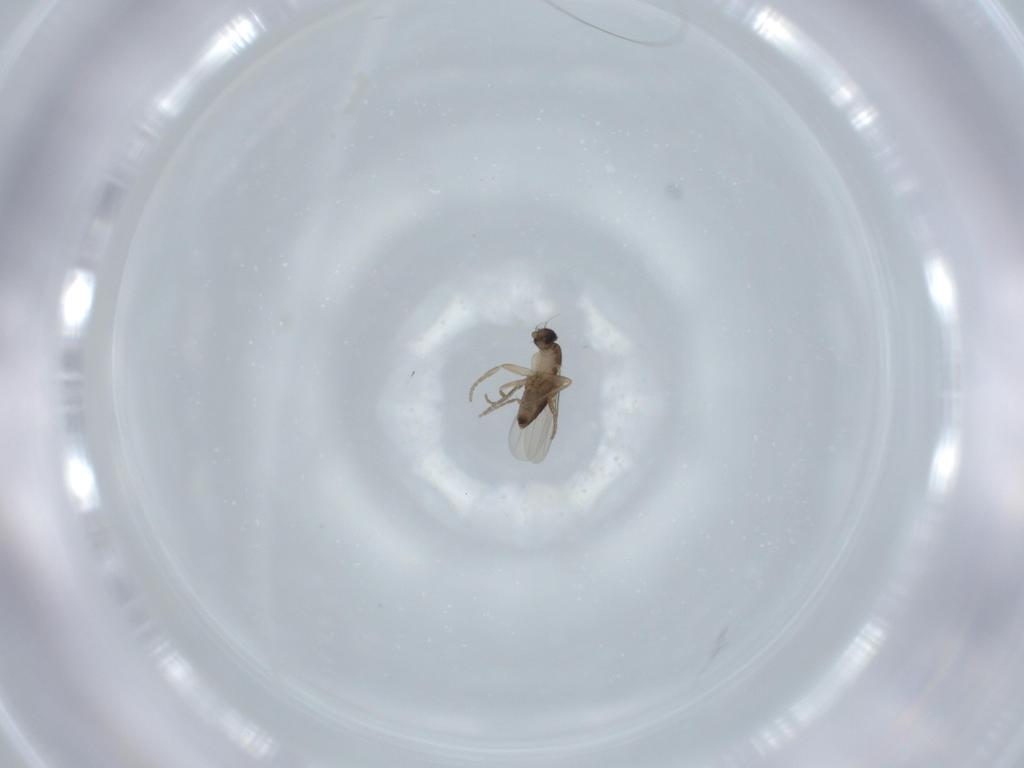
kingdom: Animalia
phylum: Arthropoda
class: Insecta
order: Diptera
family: Phoridae
